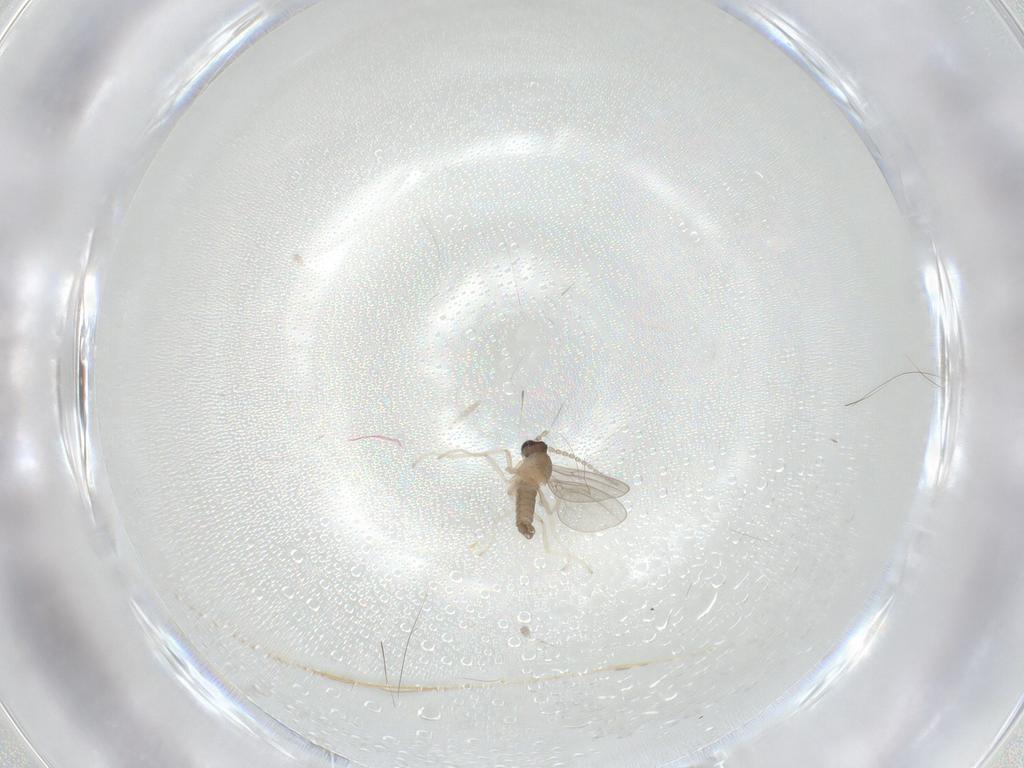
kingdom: Animalia
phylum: Arthropoda
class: Insecta
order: Diptera
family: Cecidomyiidae
